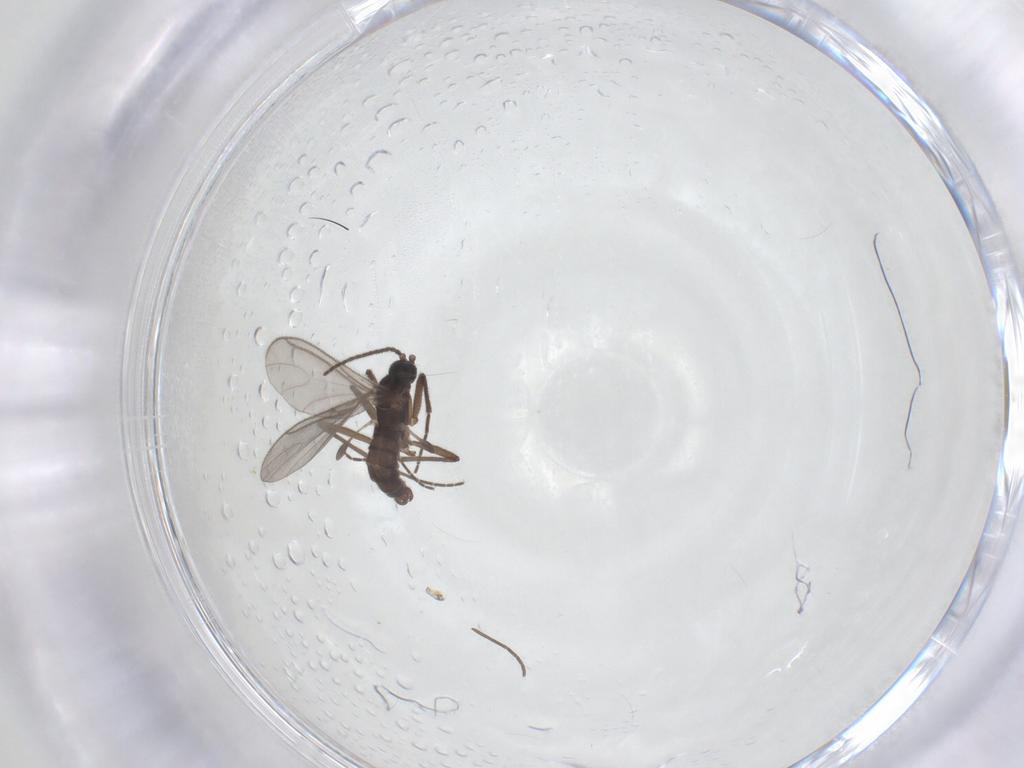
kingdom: Animalia
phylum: Arthropoda
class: Insecta
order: Diptera
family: Sciaridae
